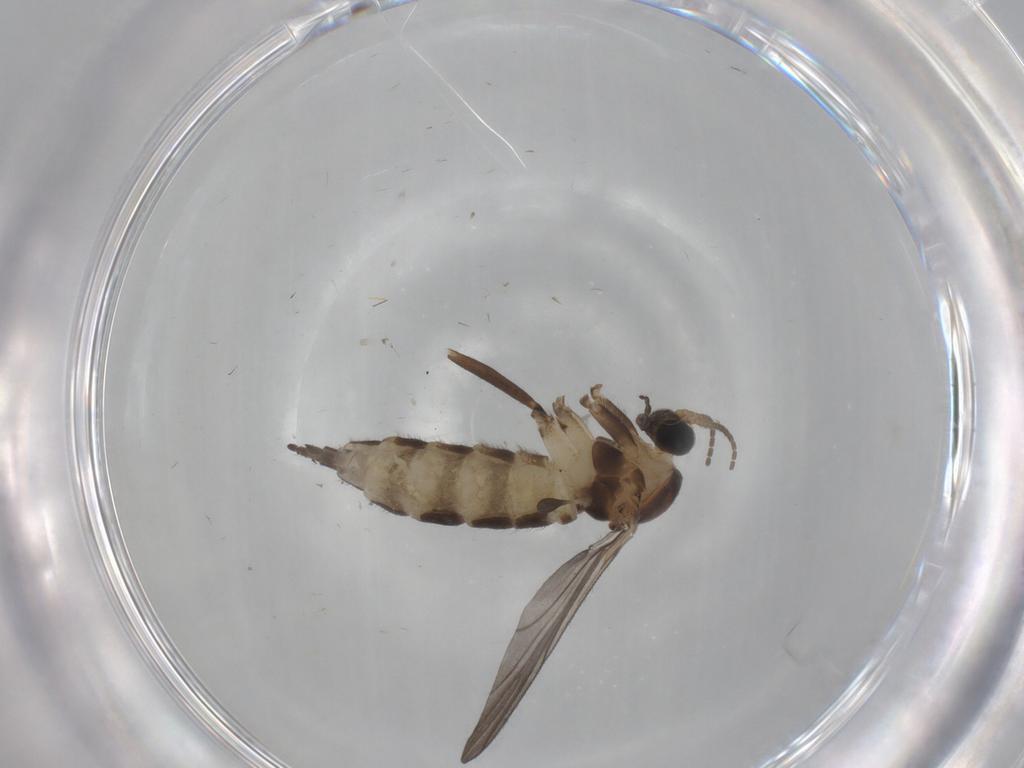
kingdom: Animalia
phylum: Arthropoda
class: Insecta
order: Diptera
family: Sciaridae
